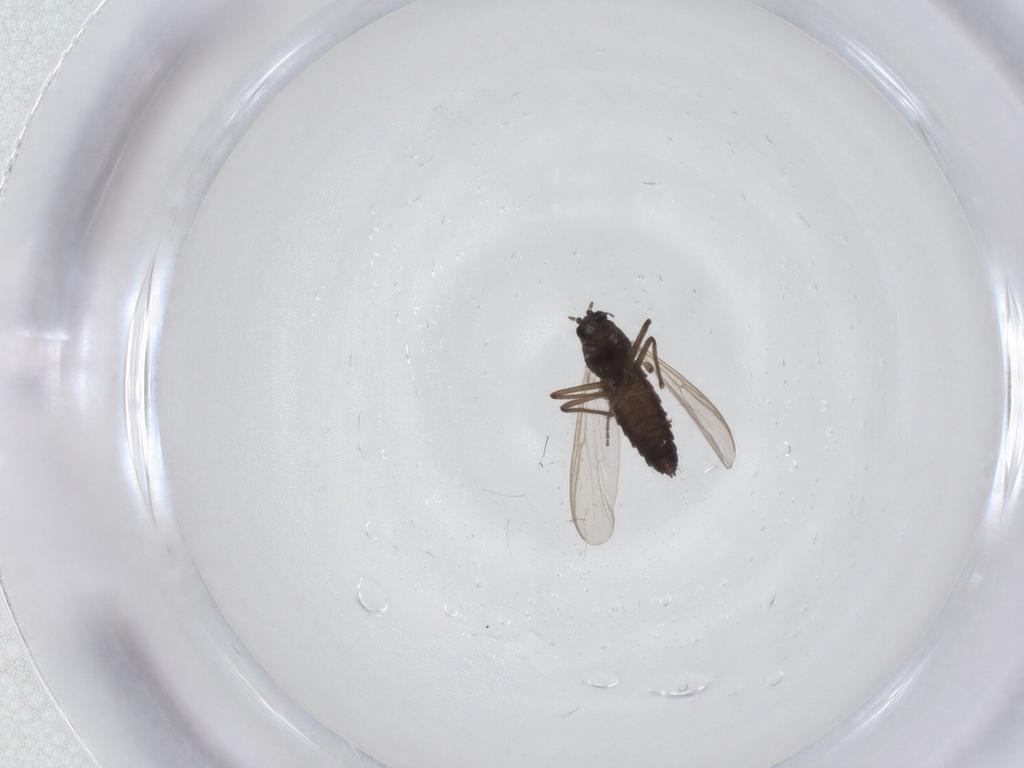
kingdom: Animalia
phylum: Arthropoda
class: Insecta
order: Diptera
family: Chironomidae
